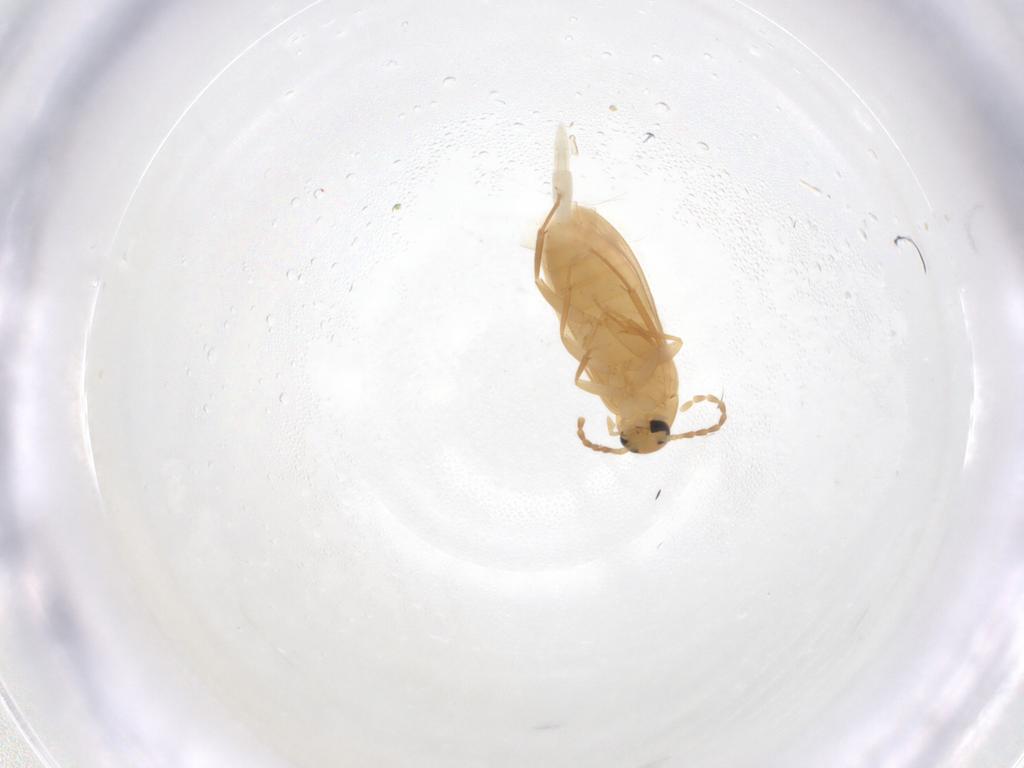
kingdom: Animalia
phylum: Arthropoda
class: Insecta
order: Coleoptera
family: Scraptiidae
